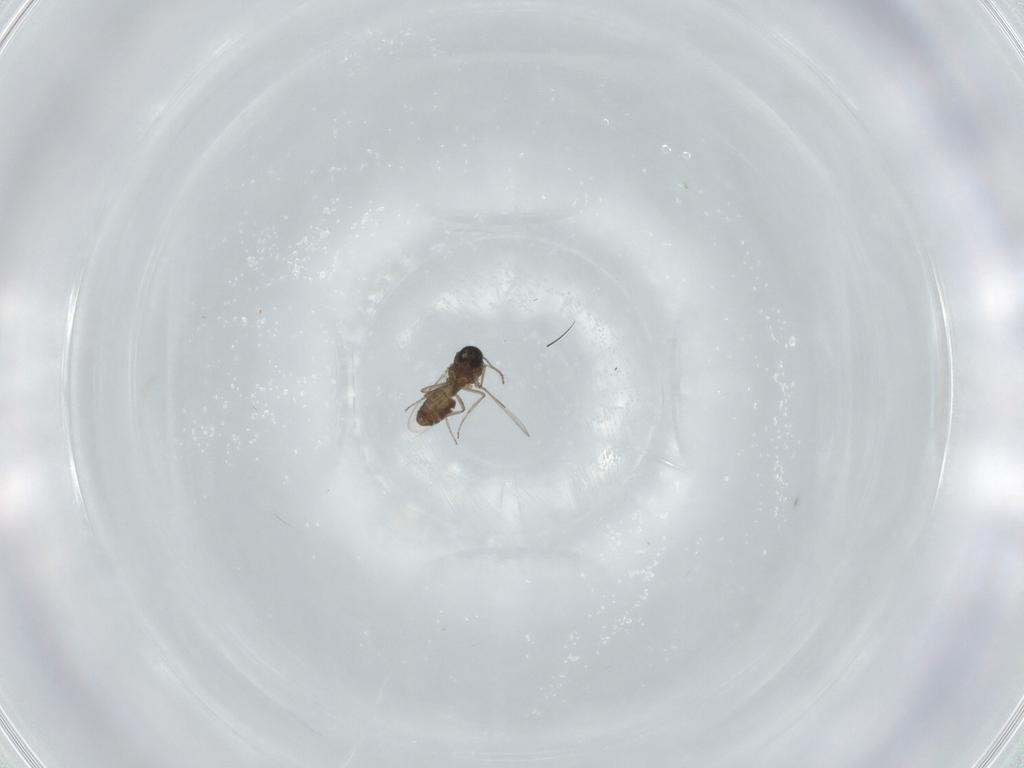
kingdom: Animalia
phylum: Arthropoda
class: Insecta
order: Diptera
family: Ceratopogonidae
